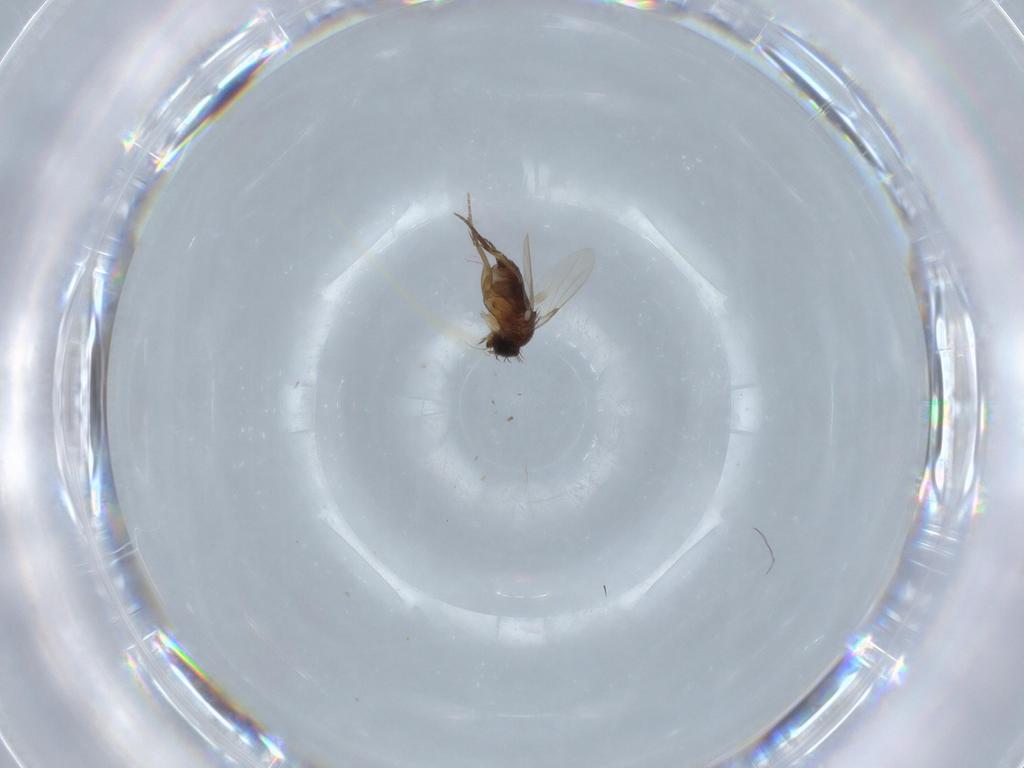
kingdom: Animalia
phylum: Arthropoda
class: Insecta
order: Diptera
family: Phoridae
